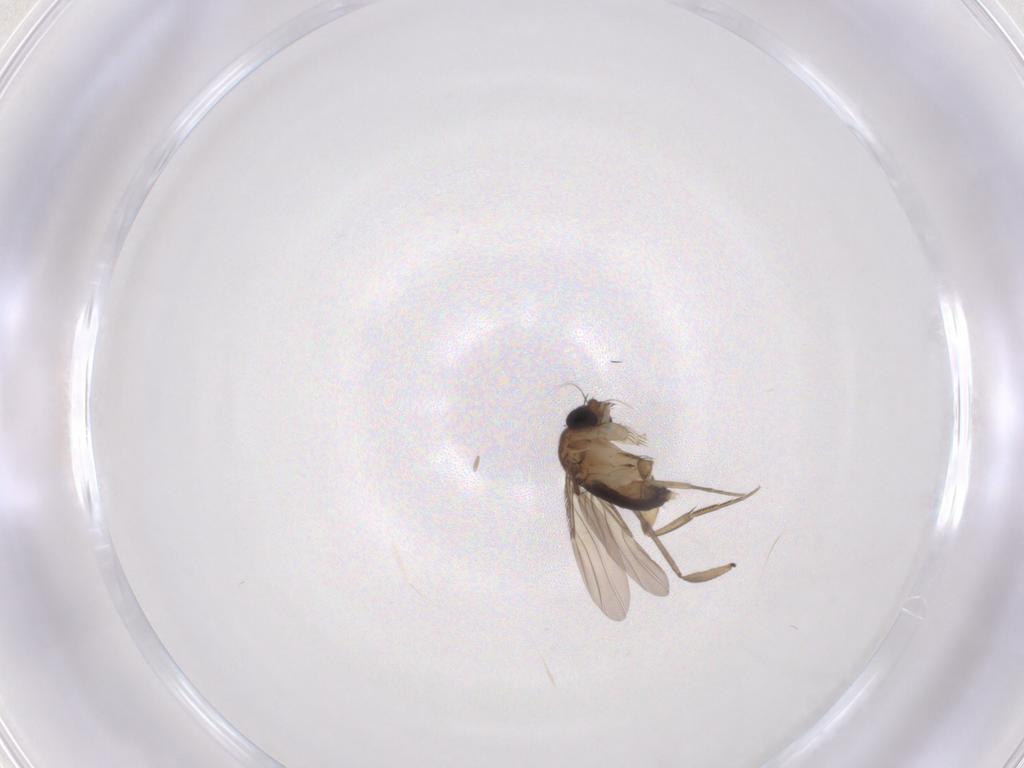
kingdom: Animalia
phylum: Arthropoda
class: Insecta
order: Diptera
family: Phoridae
